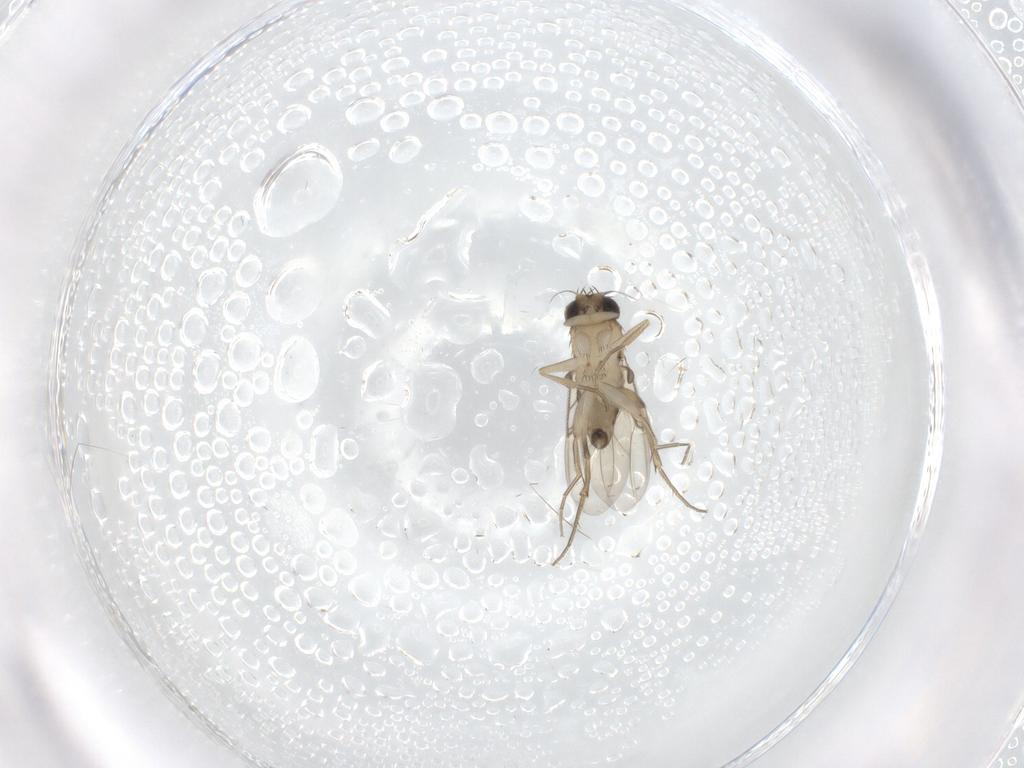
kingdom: Animalia
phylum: Arthropoda
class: Insecta
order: Diptera
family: Phoridae
